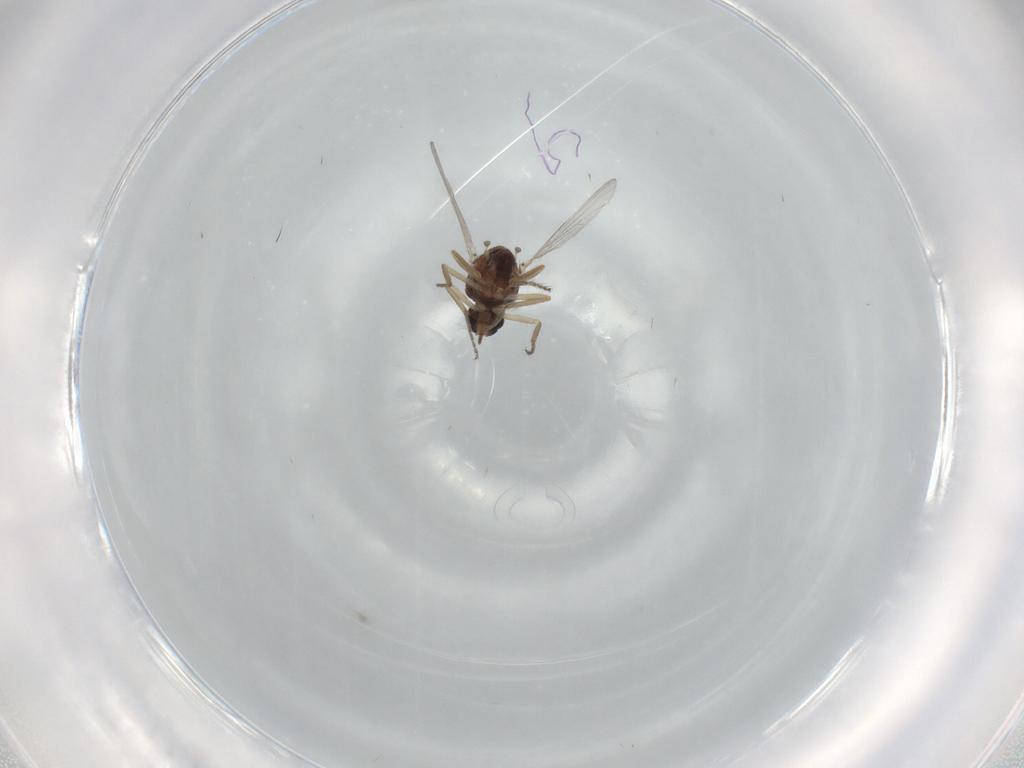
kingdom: Animalia
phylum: Arthropoda
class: Insecta
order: Diptera
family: Ceratopogonidae
